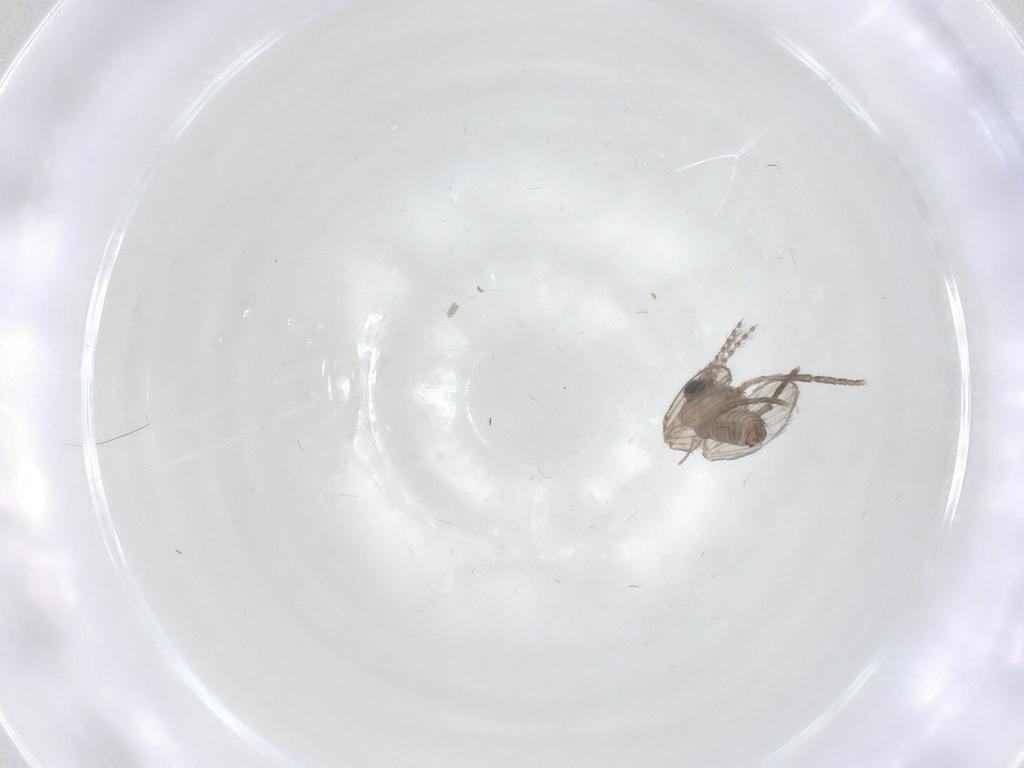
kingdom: Animalia
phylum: Arthropoda
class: Insecta
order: Diptera
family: Cecidomyiidae
